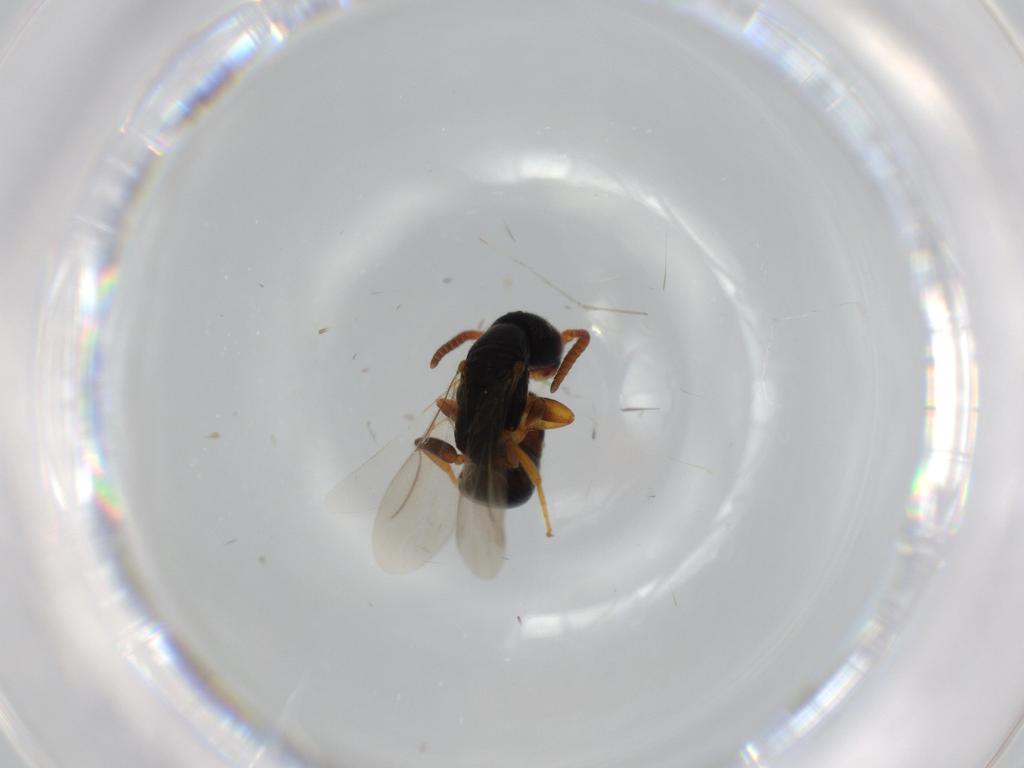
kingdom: Animalia
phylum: Arthropoda
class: Insecta
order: Hymenoptera
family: Bethylidae
